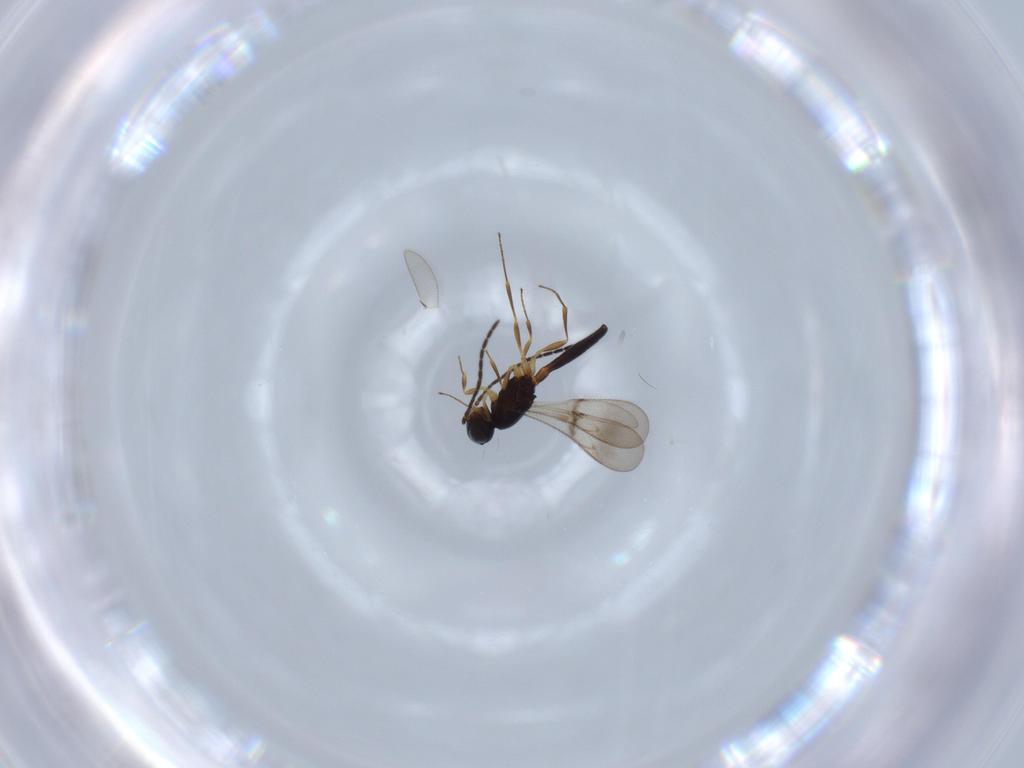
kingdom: Animalia
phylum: Arthropoda
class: Insecta
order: Hymenoptera
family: Scelionidae
